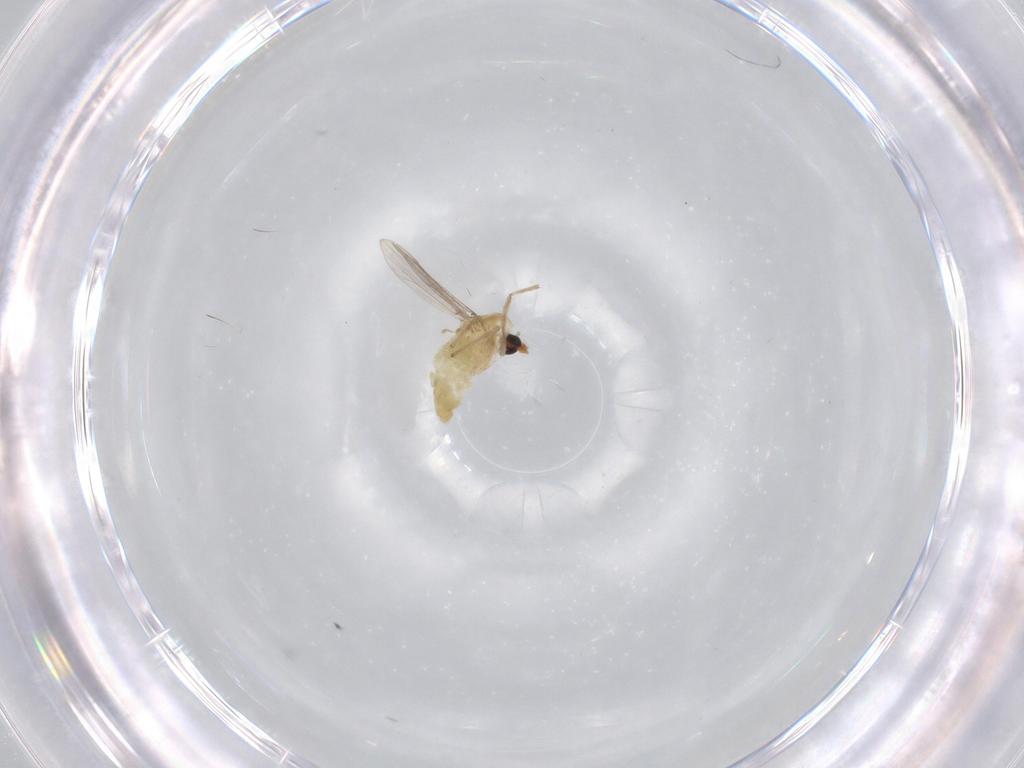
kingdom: Animalia
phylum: Arthropoda
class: Insecta
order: Diptera
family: Chironomidae
